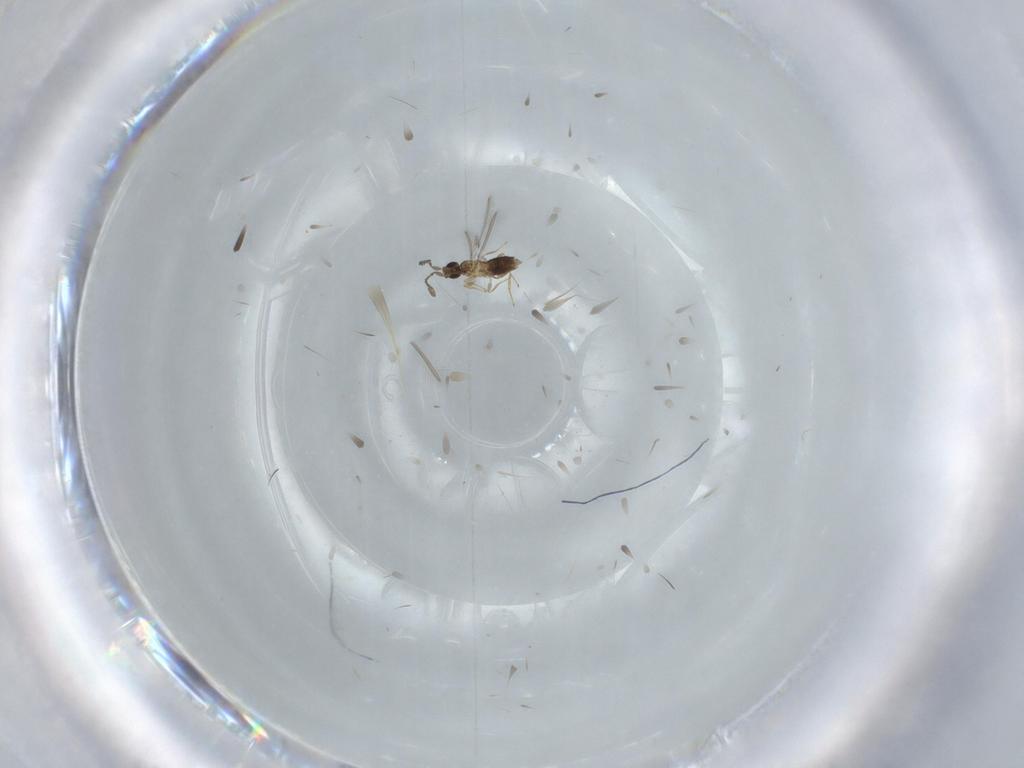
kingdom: Animalia
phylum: Arthropoda
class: Insecta
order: Hymenoptera
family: Mymaridae
